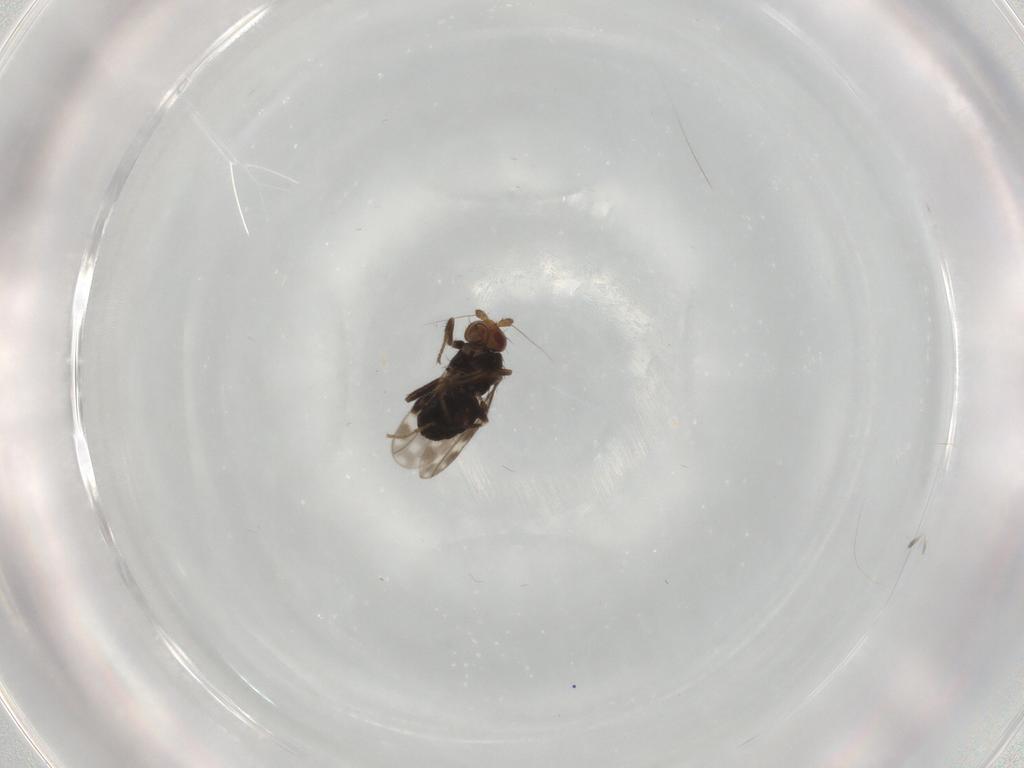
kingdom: Animalia
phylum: Arthropoda
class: Insecta
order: Diptera
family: Sphaeroceridae
